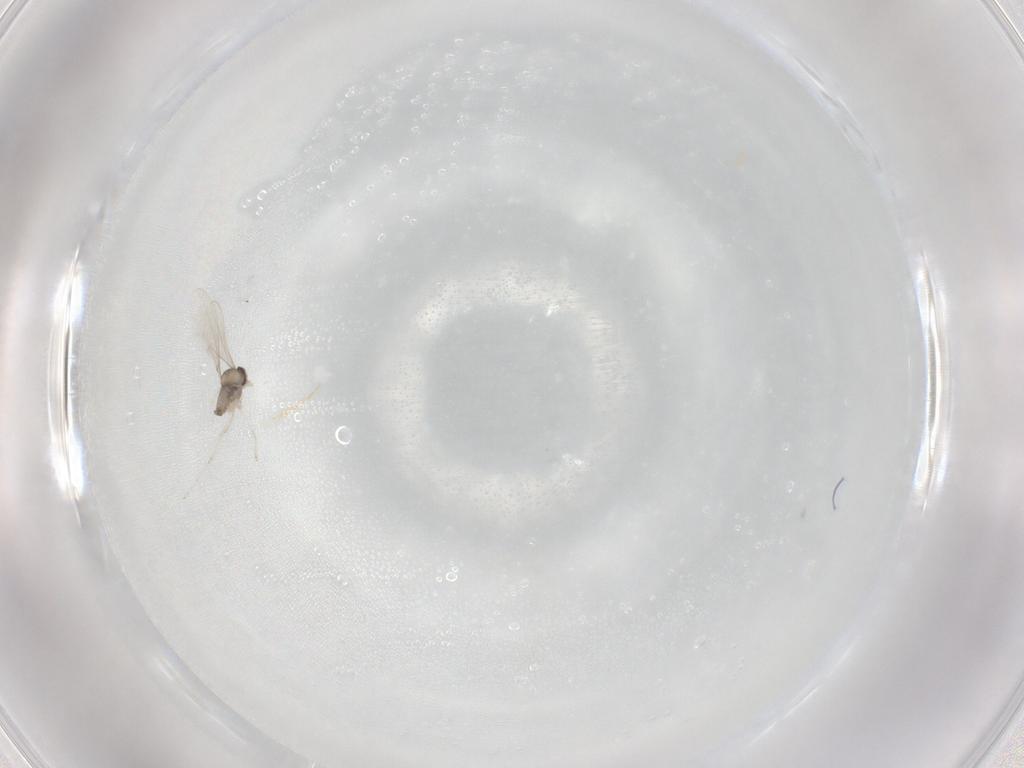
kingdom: Animalia
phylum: Arthropoda
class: Insecta
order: Diptera
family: Cecidomyiidae
